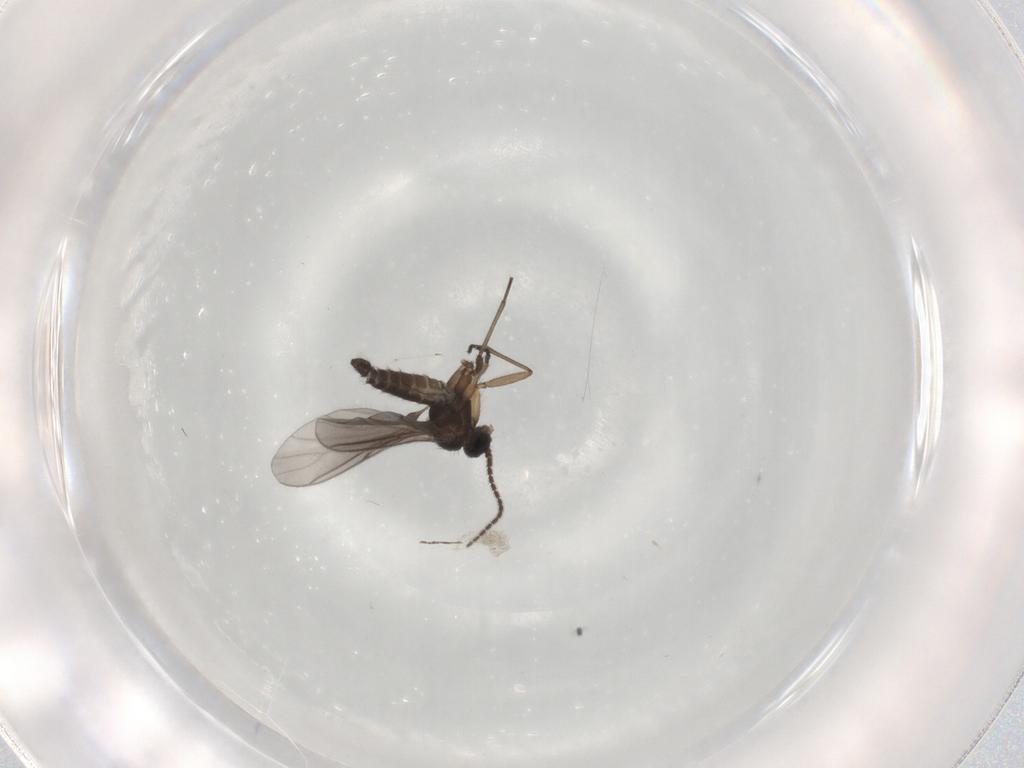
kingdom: Animalia
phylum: Arthropoda
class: Insecta
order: Diptera
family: Sciaridae
